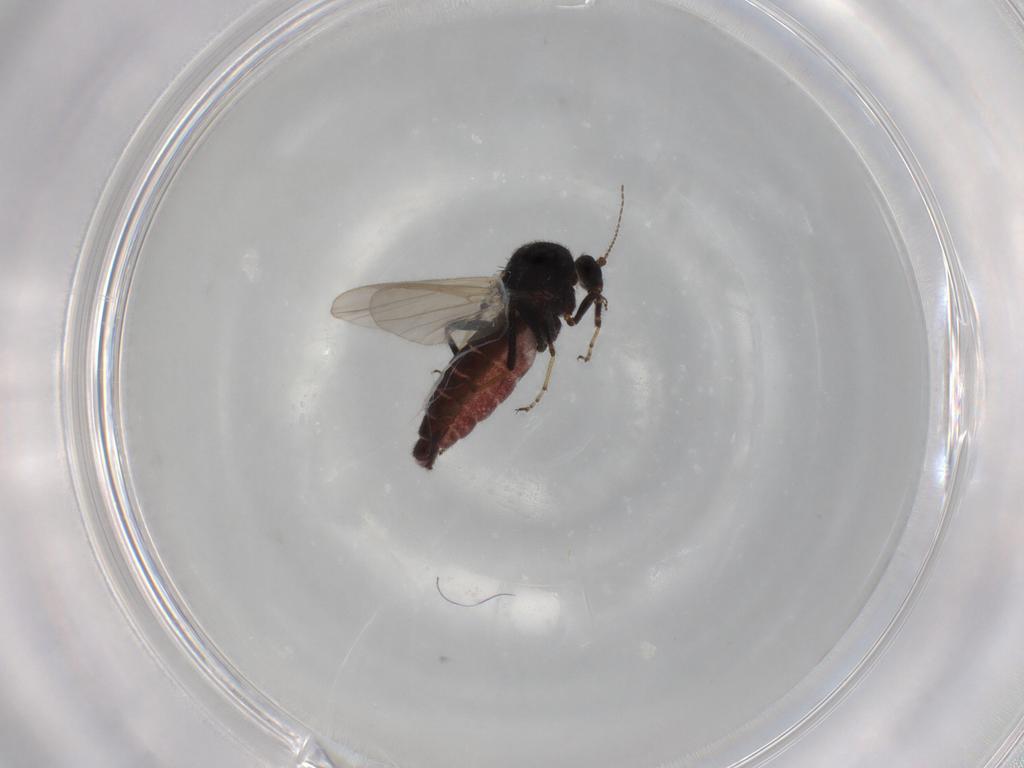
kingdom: Animalia
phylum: Arthropoda
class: Insecta
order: Diptera
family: Ceratopogonidae
